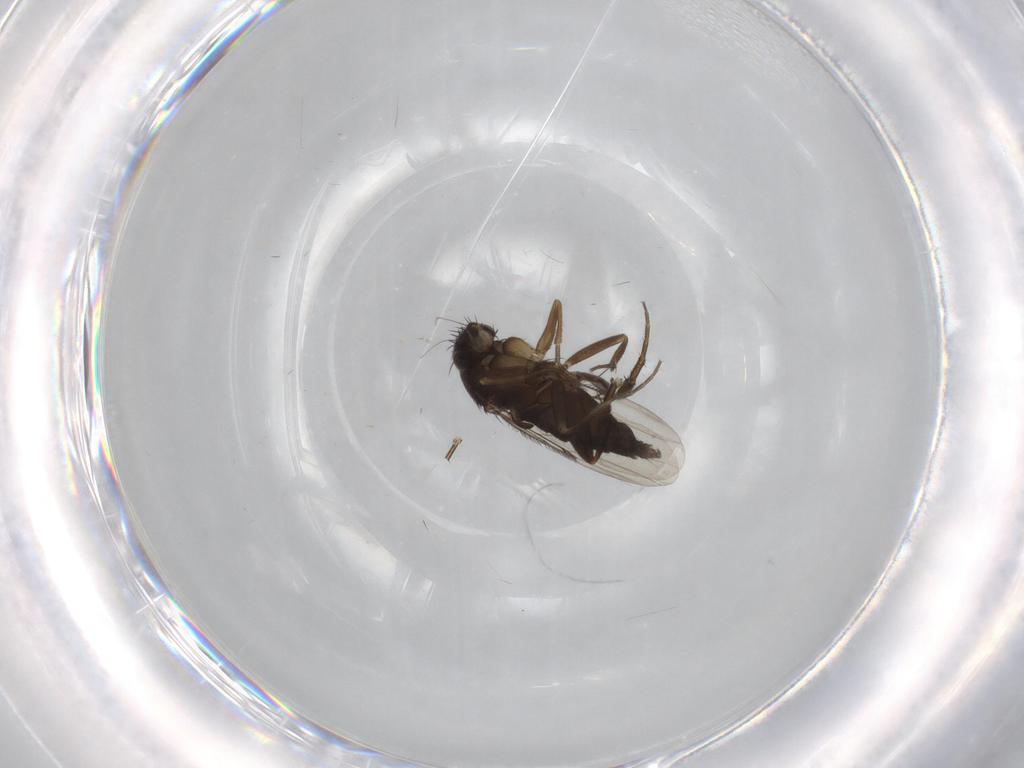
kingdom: Animalia
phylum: Arthropoda
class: Insecta
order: Diptera
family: Phoridae
